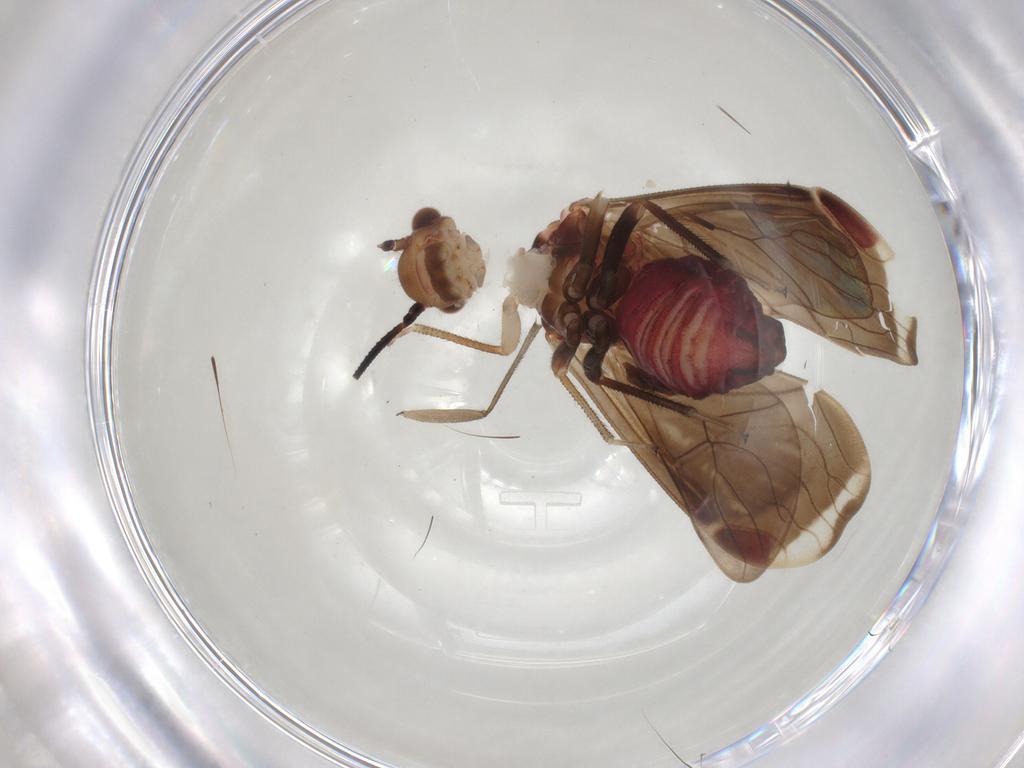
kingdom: Animalia
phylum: Arthropoda
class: Insecta
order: Psocodea
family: Amphipsocidae
